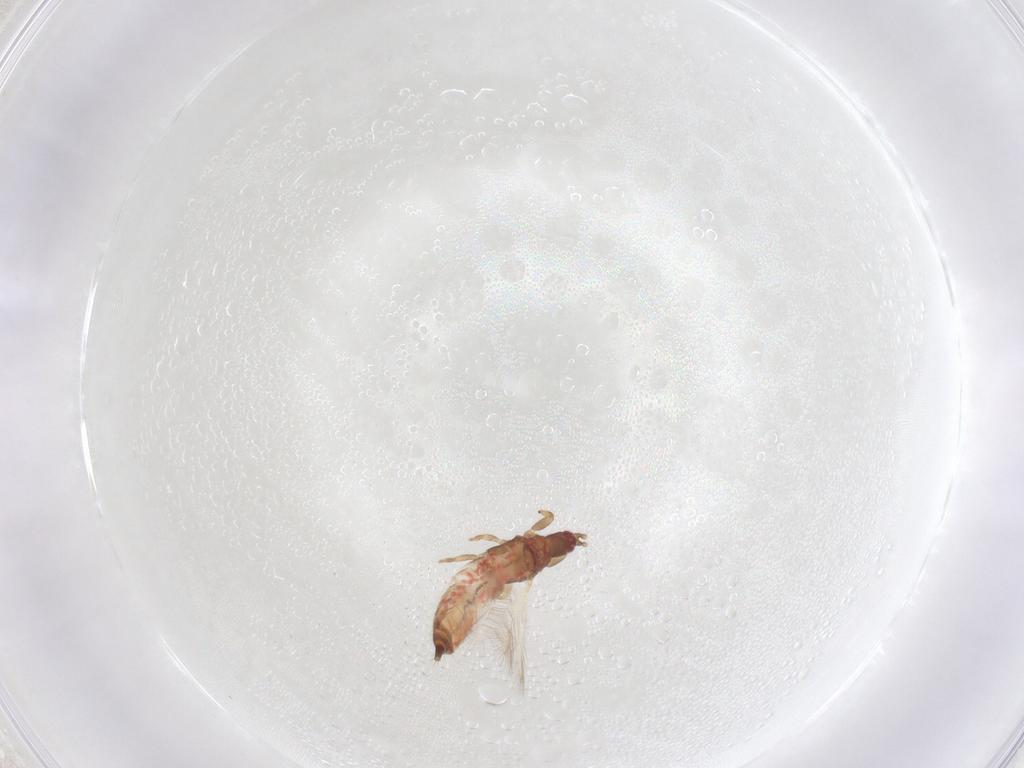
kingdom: Animalia
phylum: Arthropoda
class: Insecta
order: Thysanoptera
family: Phlaeothripidae
